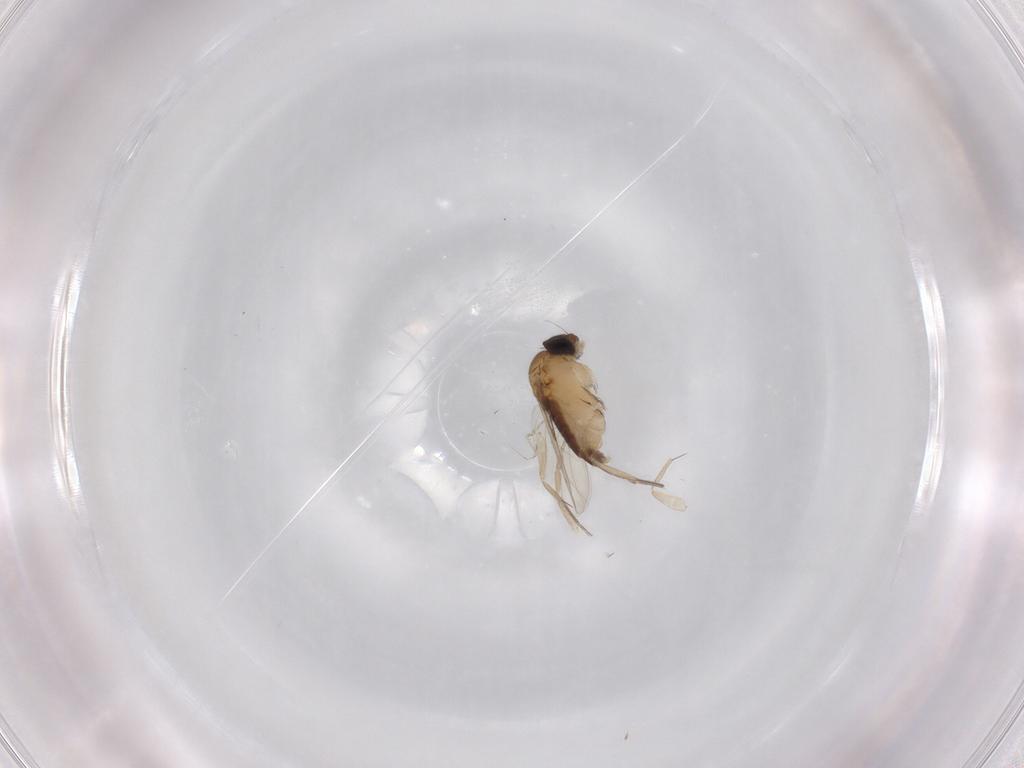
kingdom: Animalia
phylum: Arthropoda
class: Insecta
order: Diptera
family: Phoridae
